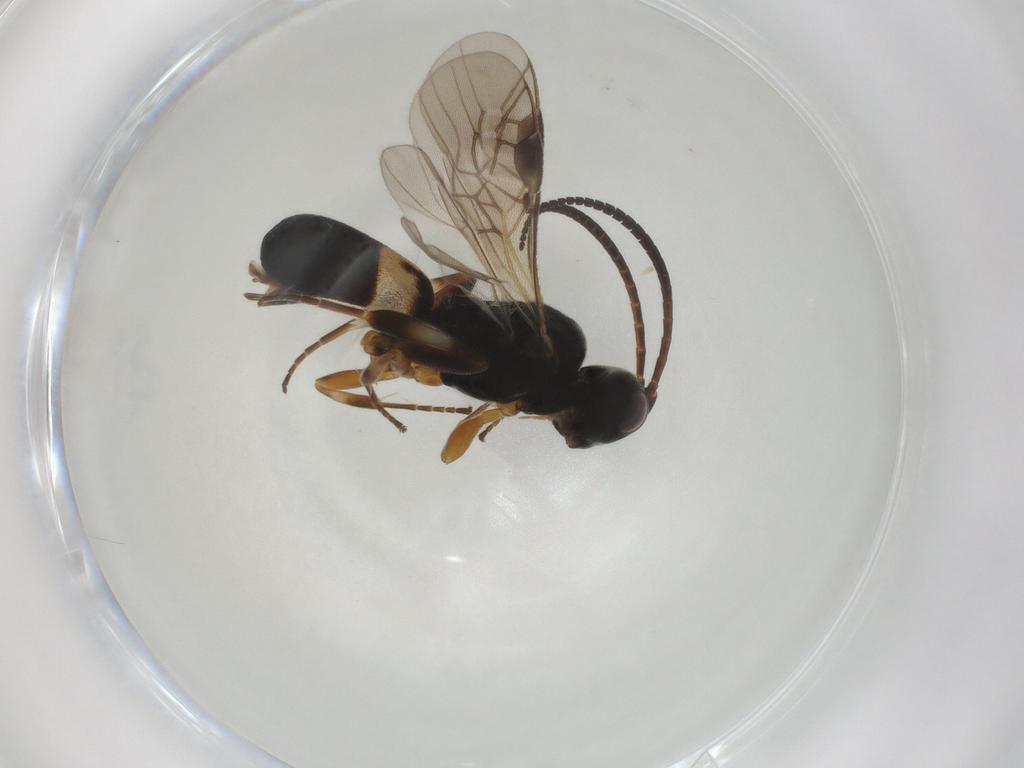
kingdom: Animalia
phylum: Arthropoda
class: Insecta
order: Hymenoptera
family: Braconidae
